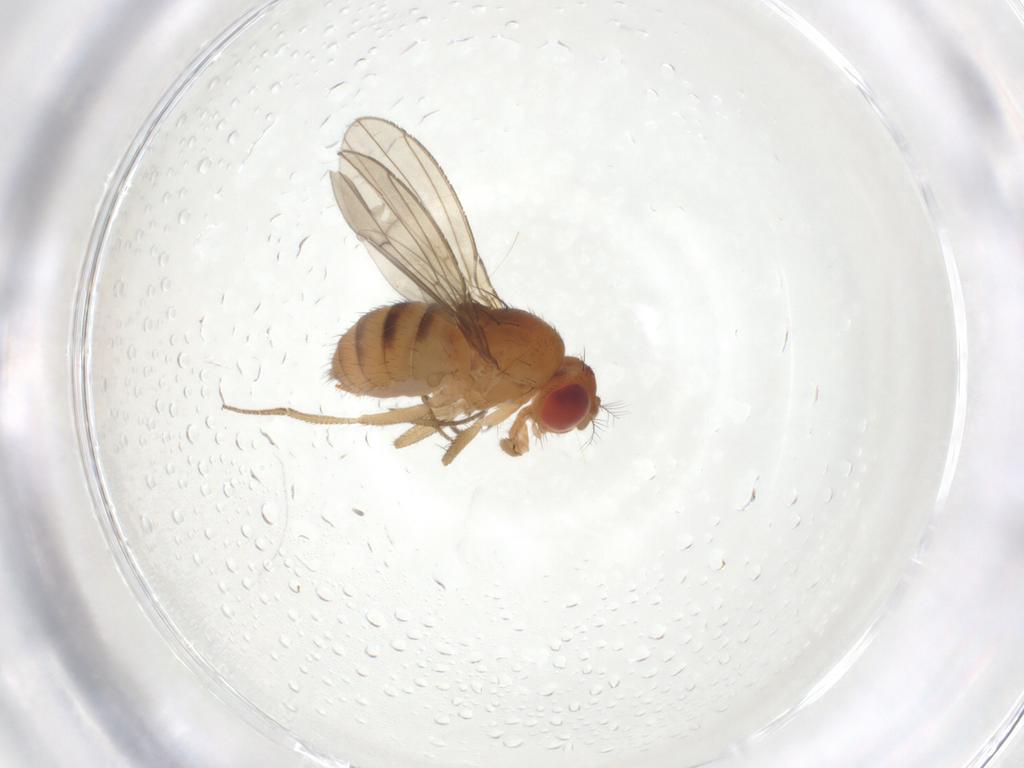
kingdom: Animalia
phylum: Arthropoda
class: Insecta
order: Diptera
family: Drosophilidae
